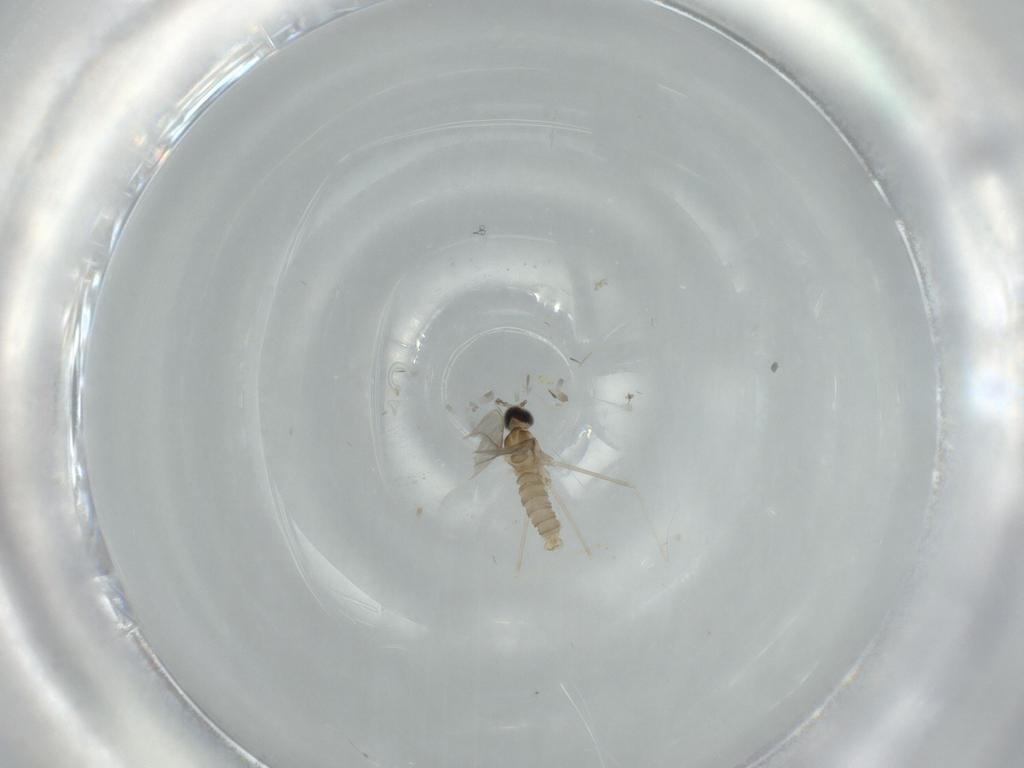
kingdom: Animalia
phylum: Arthropoda
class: Insecta
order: Diptera
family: Cecidomyiidae
